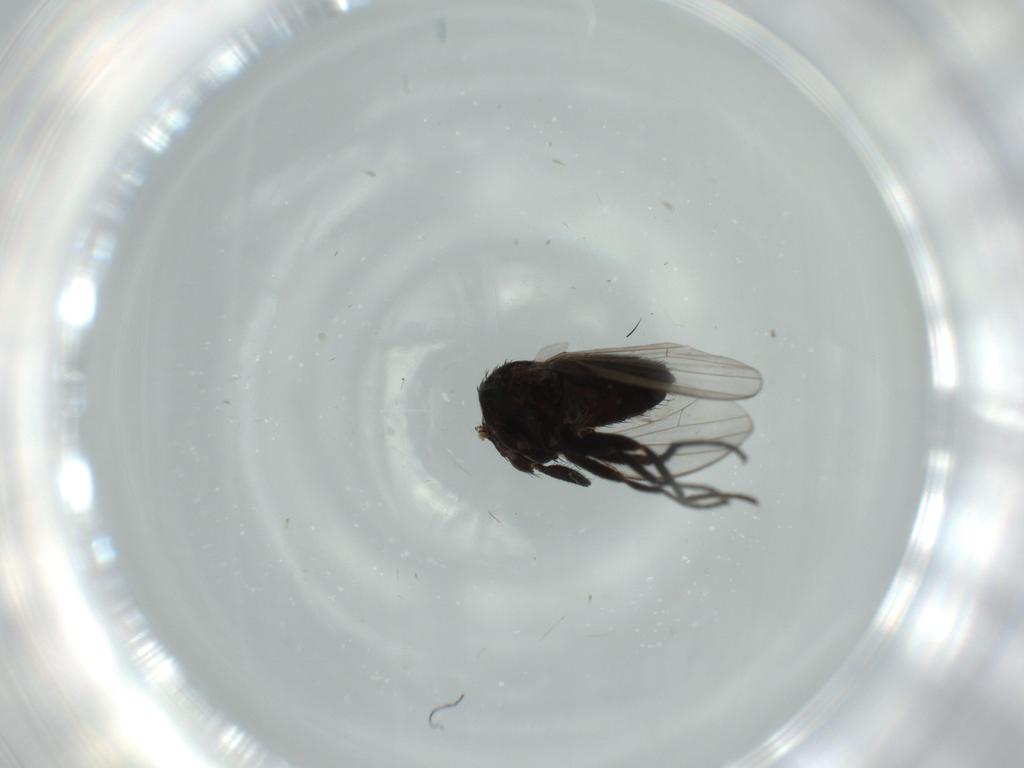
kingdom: Animalia
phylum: Arthropoda
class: Insecta
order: Diptera
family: Milichiidae
